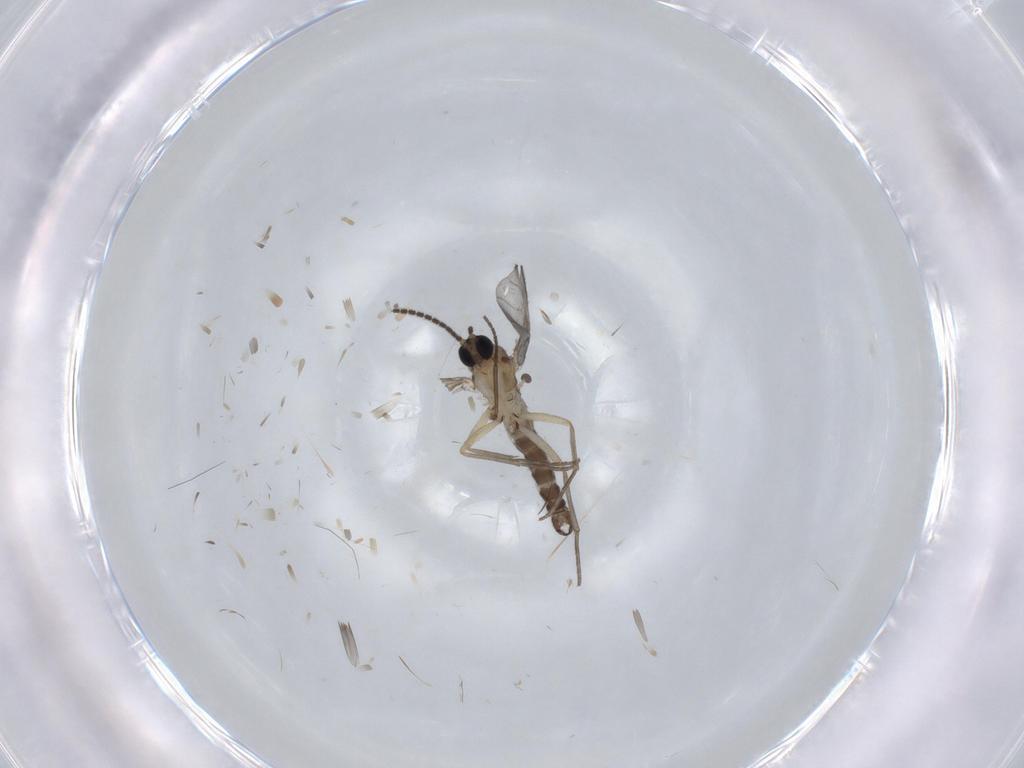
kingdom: Animalia
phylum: Arthropoda
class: Insecta
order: Diptera
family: Sciaridae
